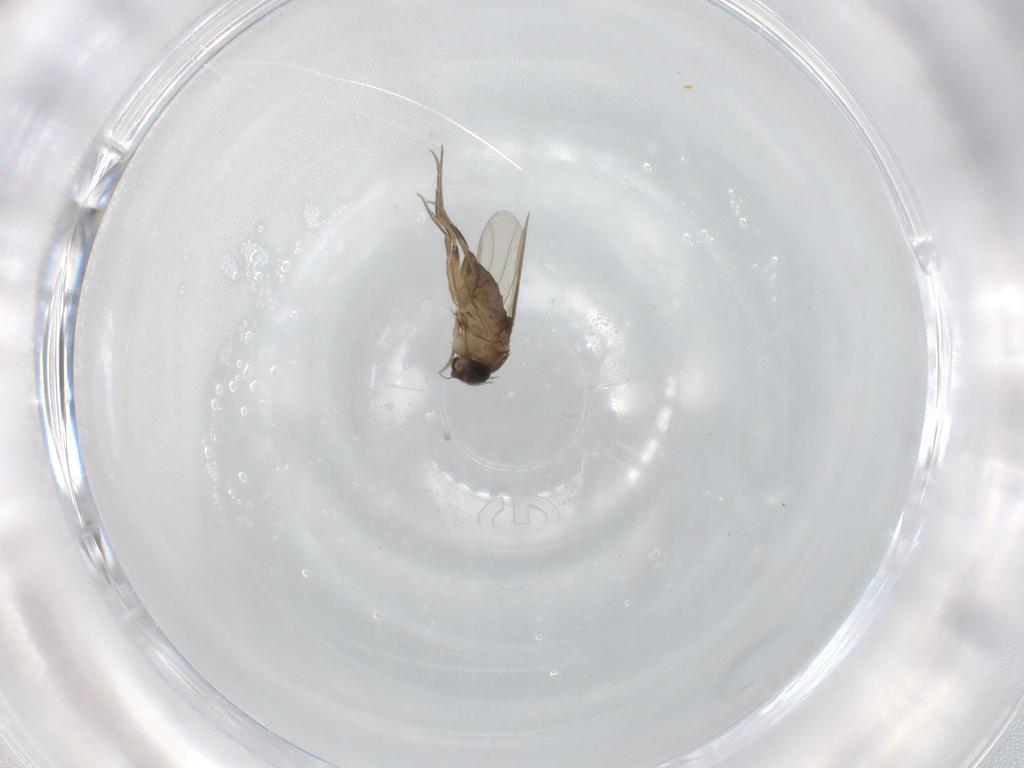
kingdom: Animalia
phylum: Arthropoda
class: Insecta
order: Diptera
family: Phoridae
